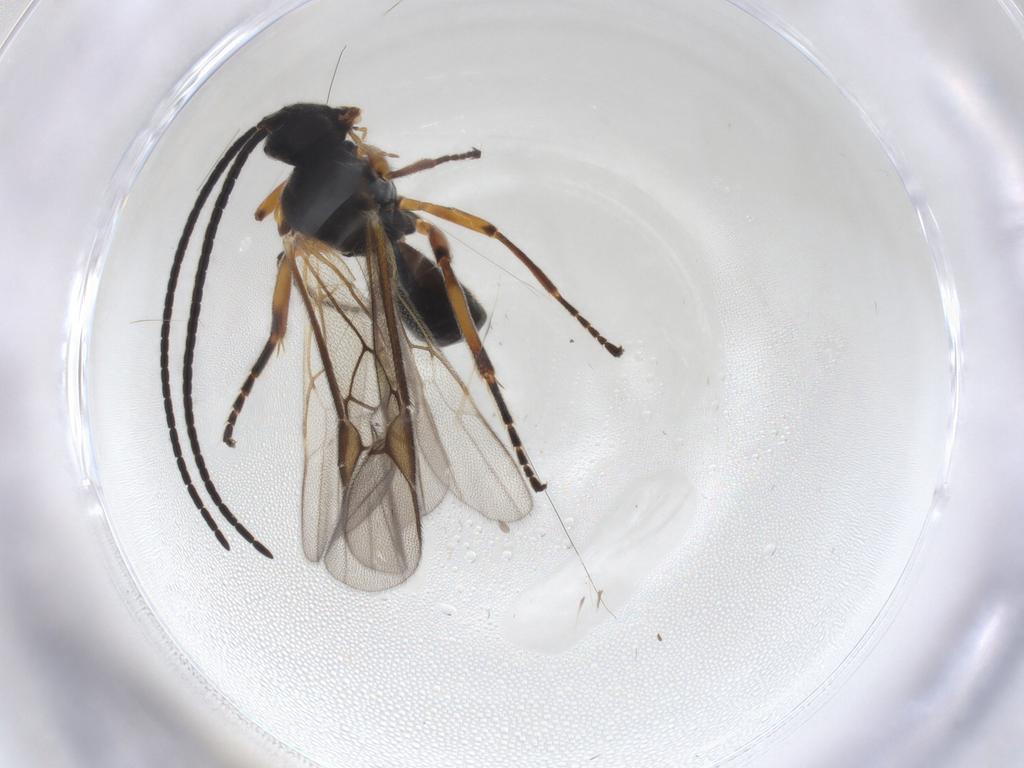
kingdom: Animalia
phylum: Arthropoda
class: Insecta
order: Hymenoptera
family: Braconidae
